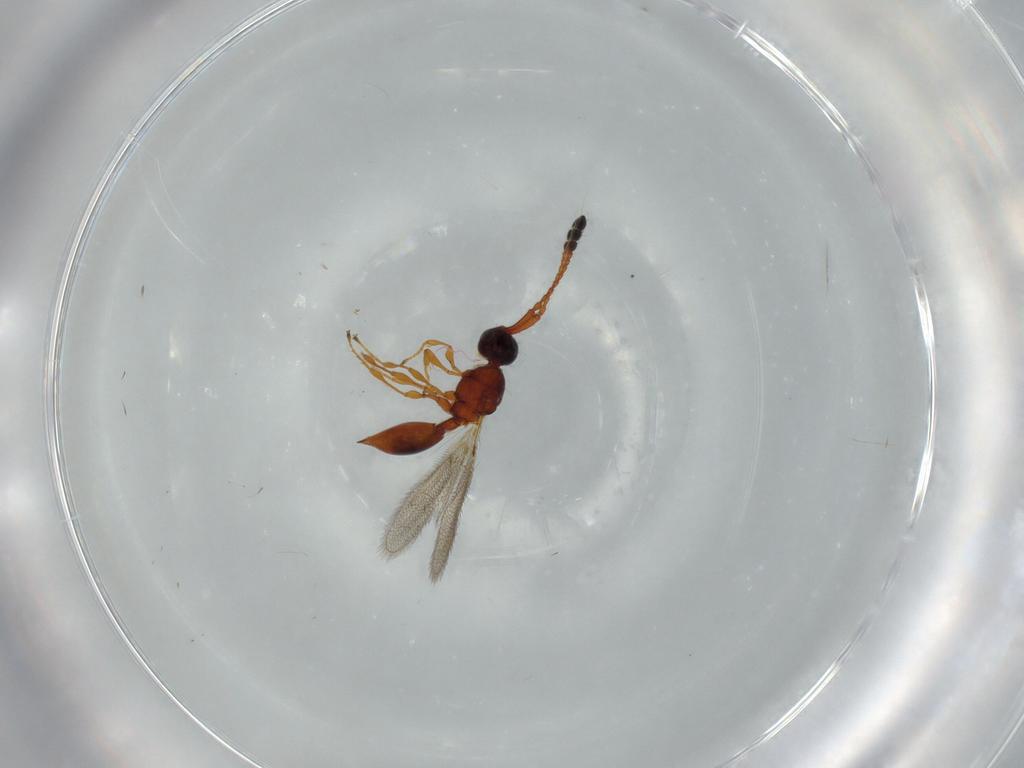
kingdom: Animalia
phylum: Arthropoda
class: Insecta
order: Hymenoptera
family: Diapriidae
